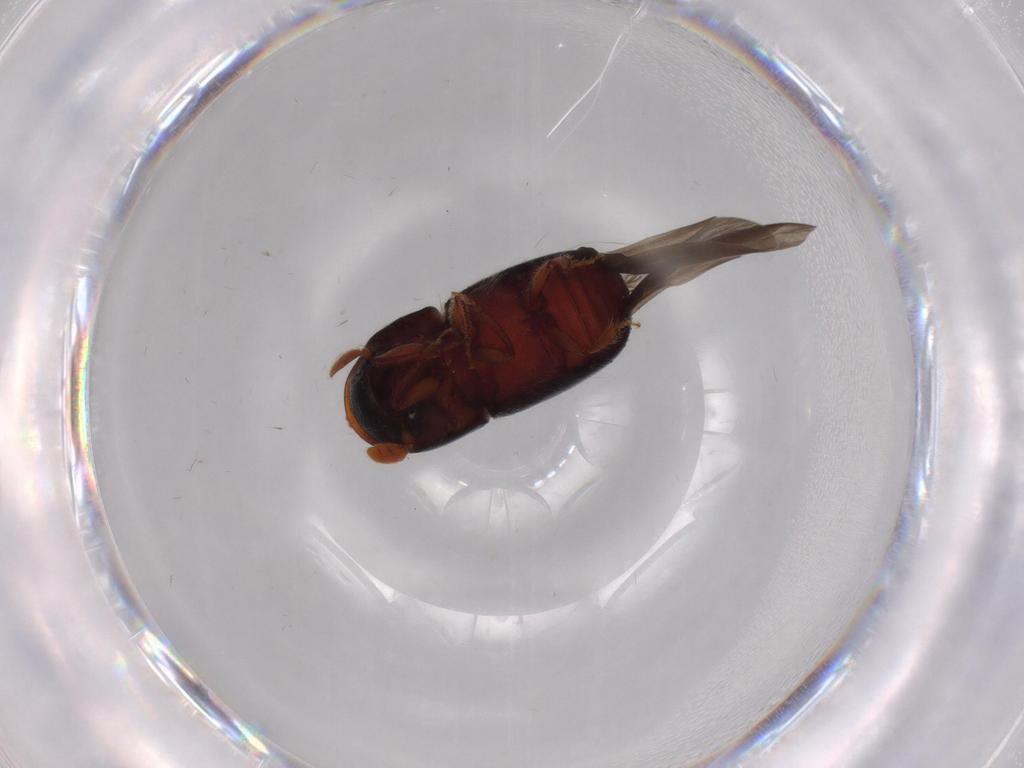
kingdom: Animalia
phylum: Arthropoda
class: Insecta
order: Coleoptera
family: Curculionidae
